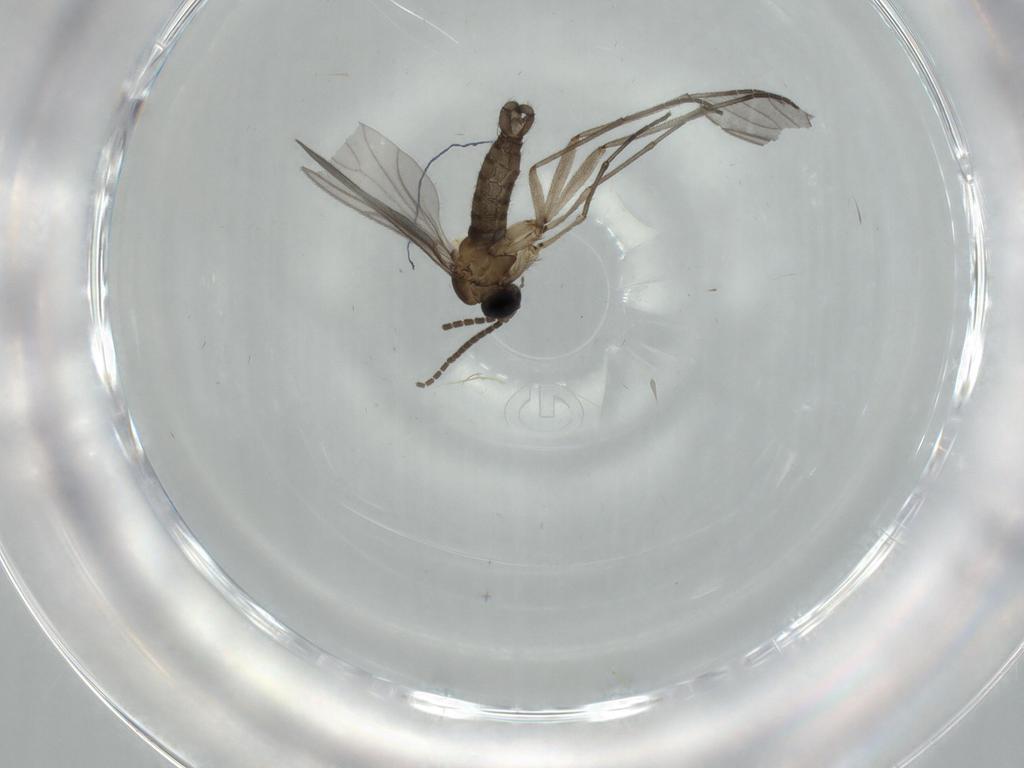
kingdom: Animalia
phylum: Arthropoda
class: Insecta
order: Diptera
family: Sciaridae
